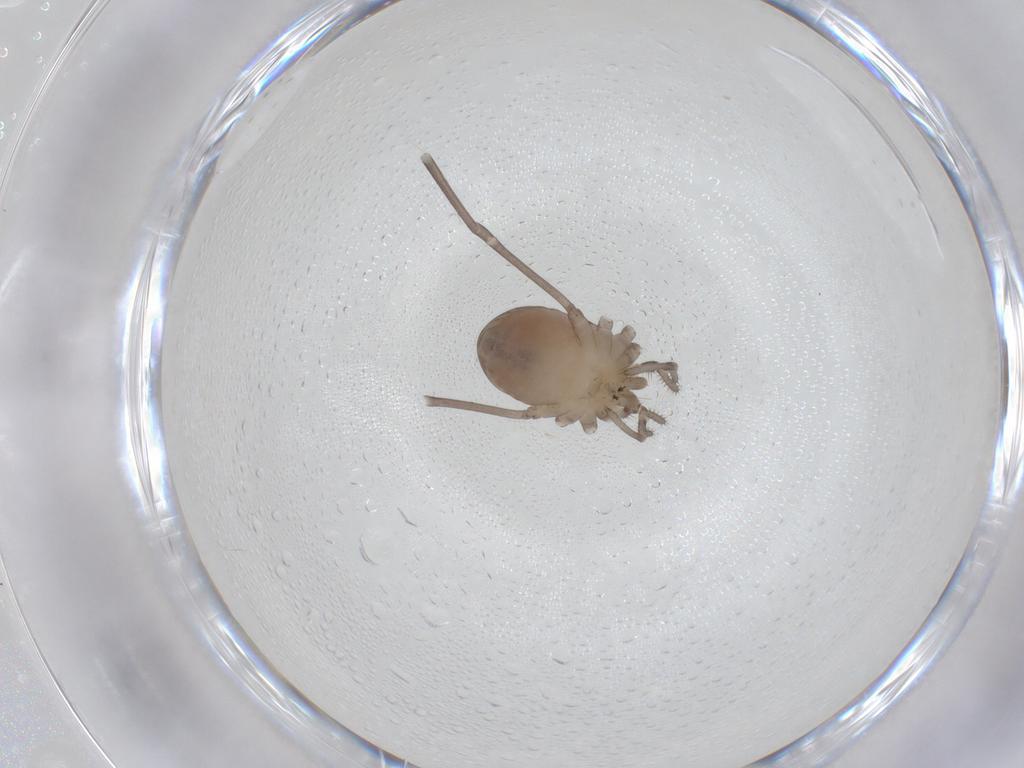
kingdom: Animalia
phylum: Arthropoda
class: Arachnida
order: Opiliones
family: Sclerosomatidae
